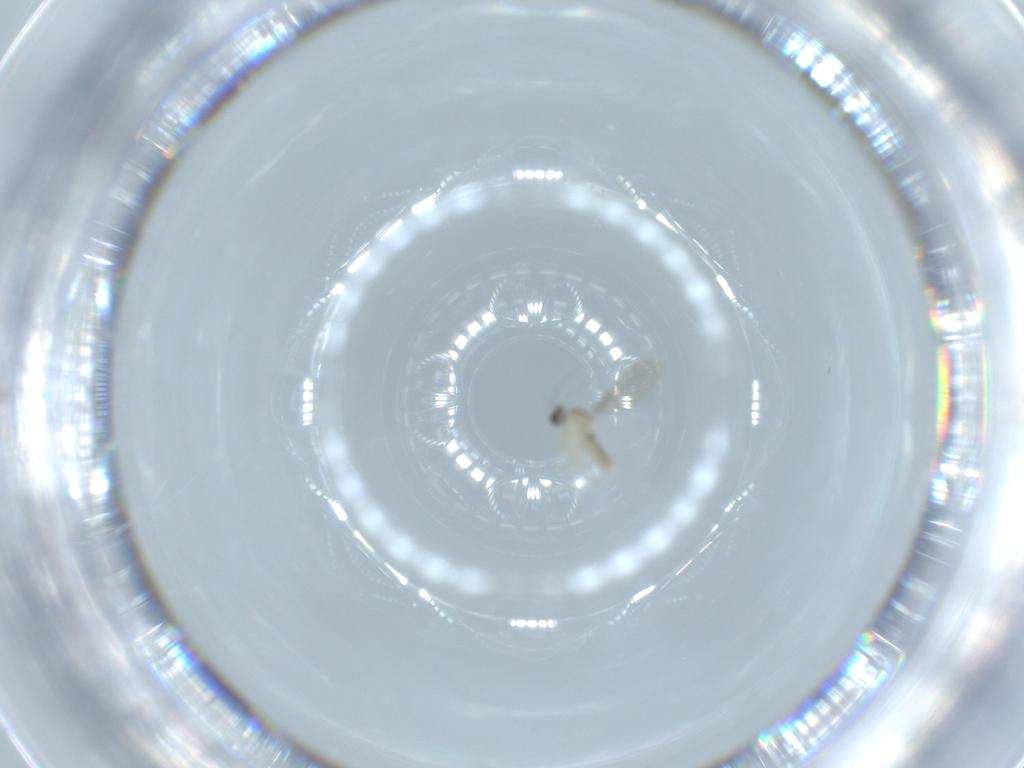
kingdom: Animalia
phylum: Arthropoda
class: Insecta
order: Diptera
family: Cecidomyiidae
